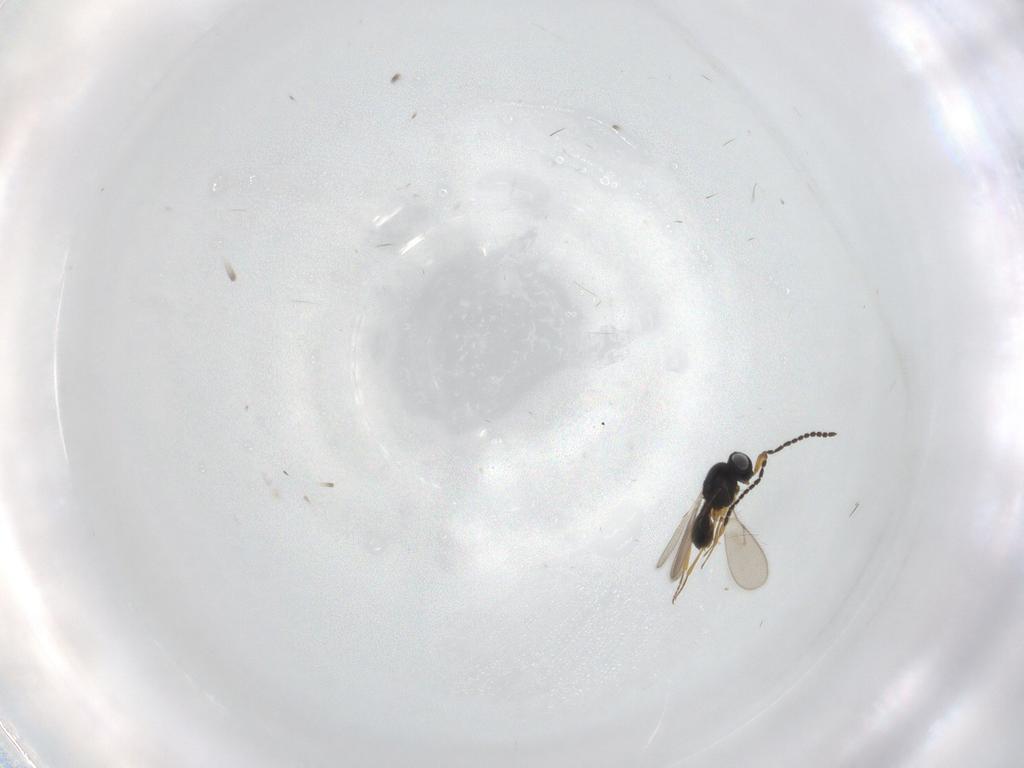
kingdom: Animalia
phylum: Arthropoda
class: Insecta
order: Hymenoptera
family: Scelionidae
